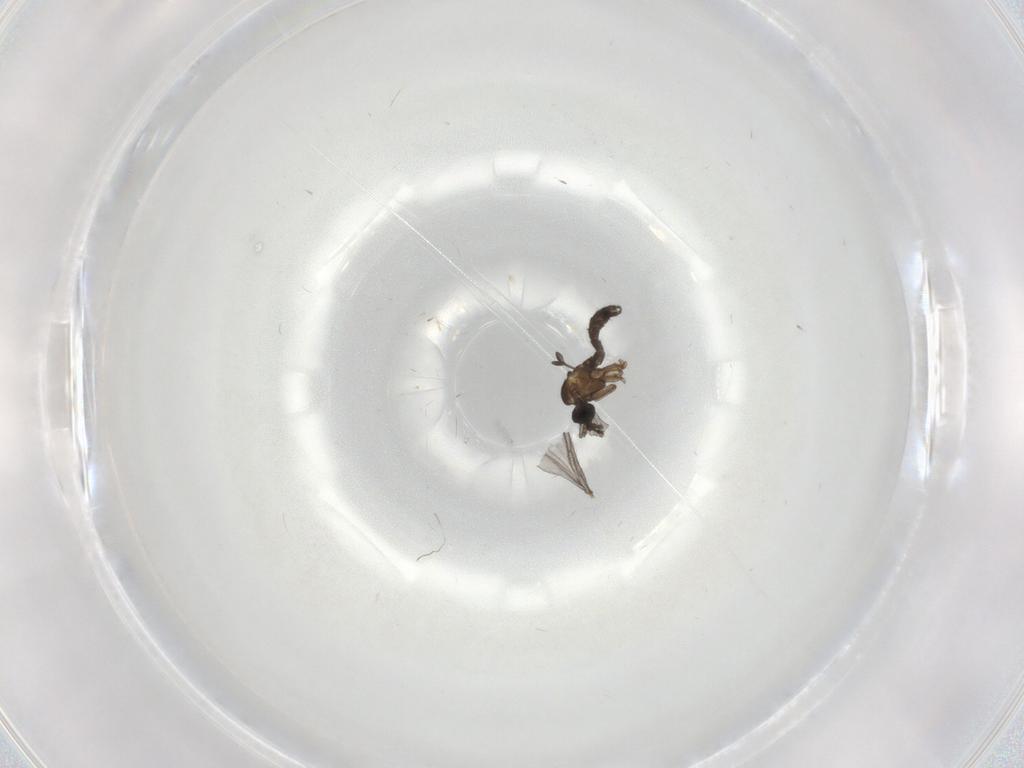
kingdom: Animalia
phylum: Arthropoda
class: Insecta
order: Diptera
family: Sciaridae
